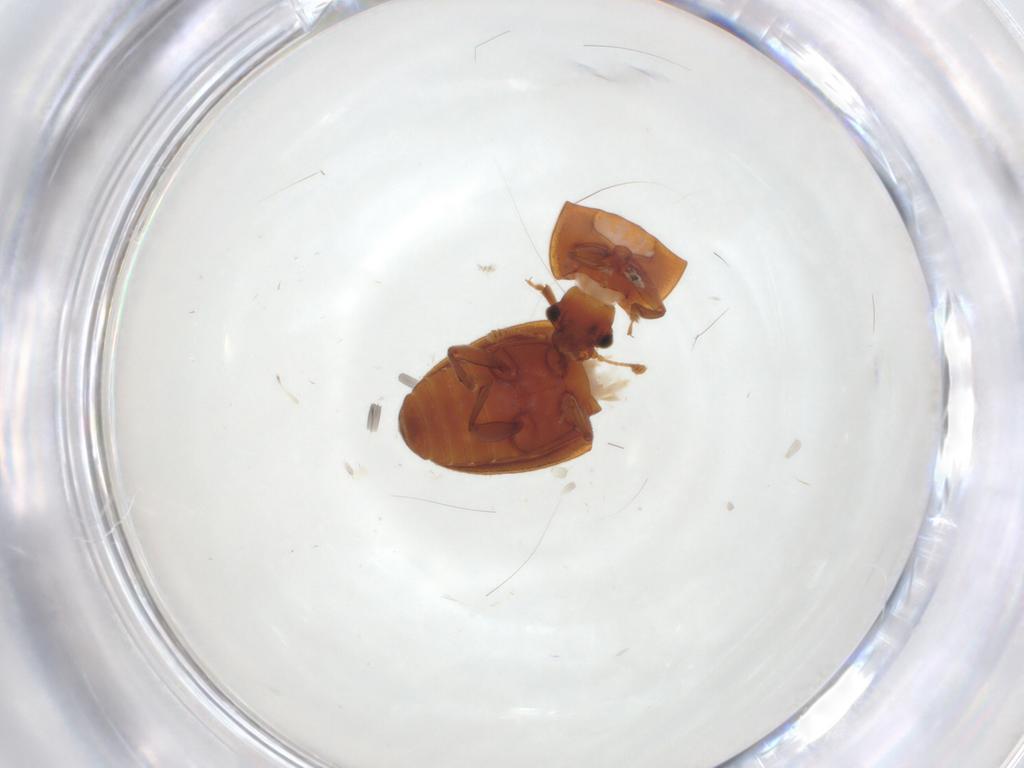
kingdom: Animalia
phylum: Arthropoda
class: Insecta
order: Coleoptera
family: Nitidulidae
